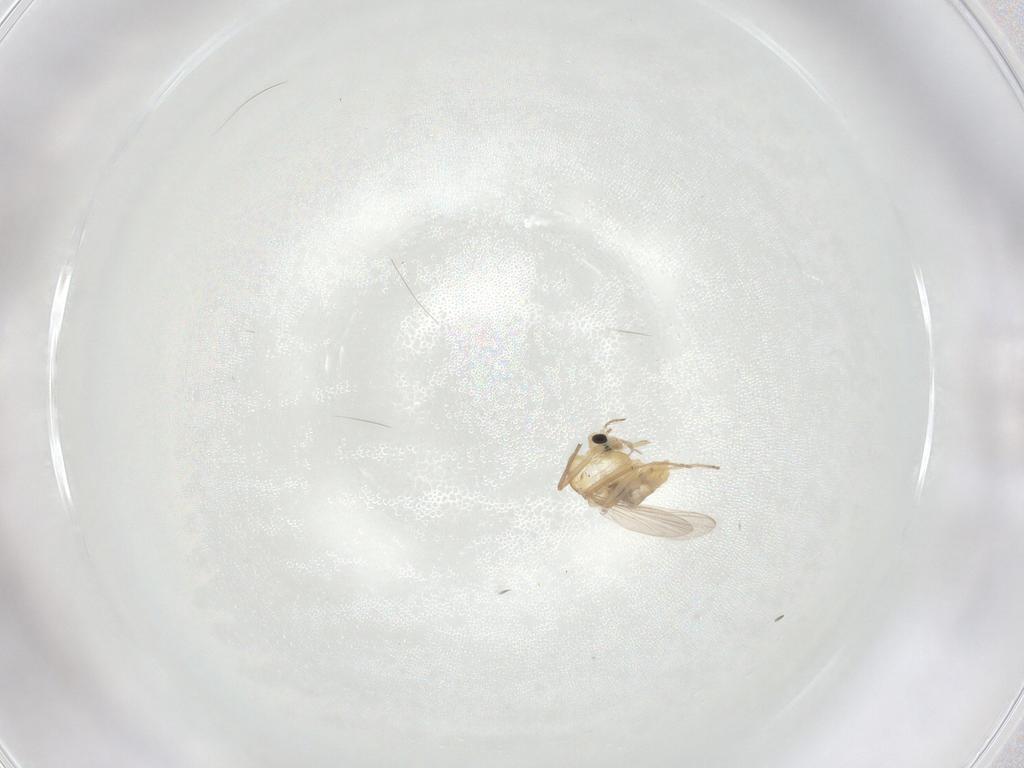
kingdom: Animalia
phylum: Arthropoda
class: Insecta
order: Diptera
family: Chironomidae
